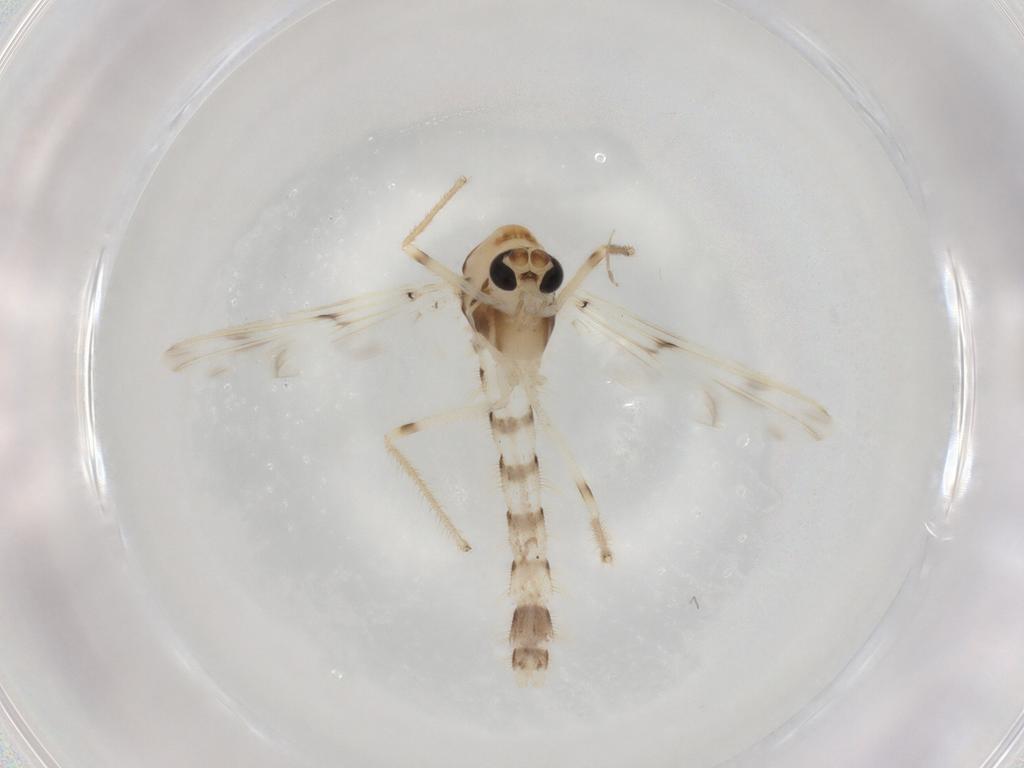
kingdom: Animalia
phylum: Arthropoda
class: Insecta
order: Diptera
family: Chironomidae
